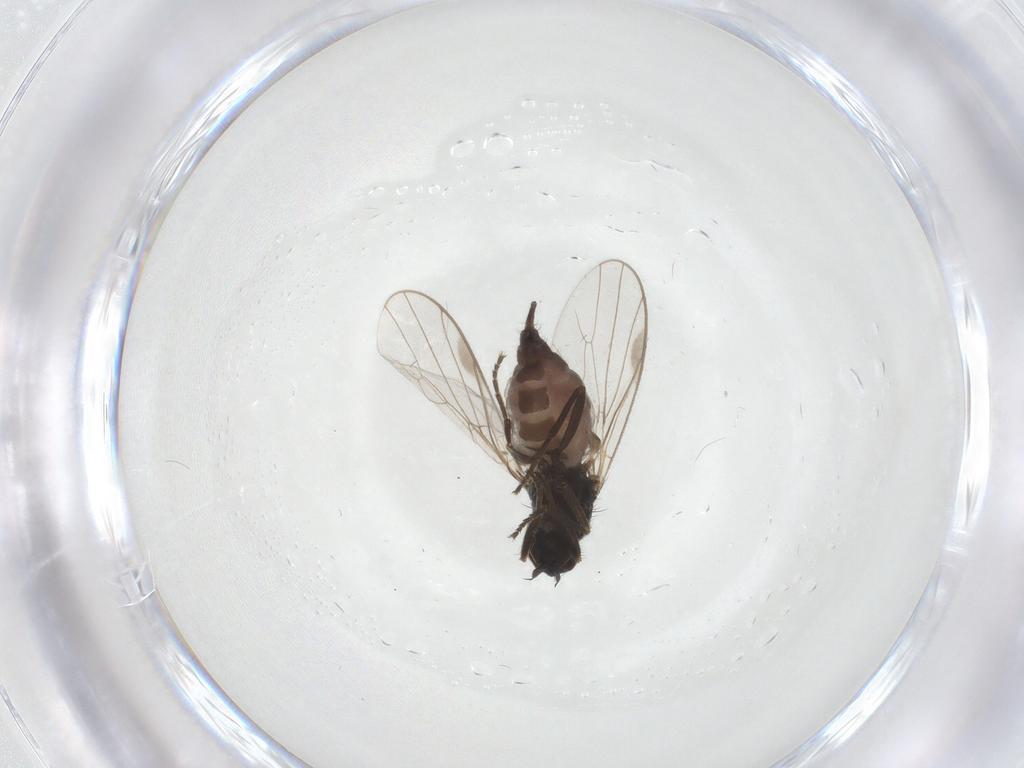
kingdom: Animalia
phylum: Arthropoda
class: Insecta
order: Diptera
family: Hybotidae
